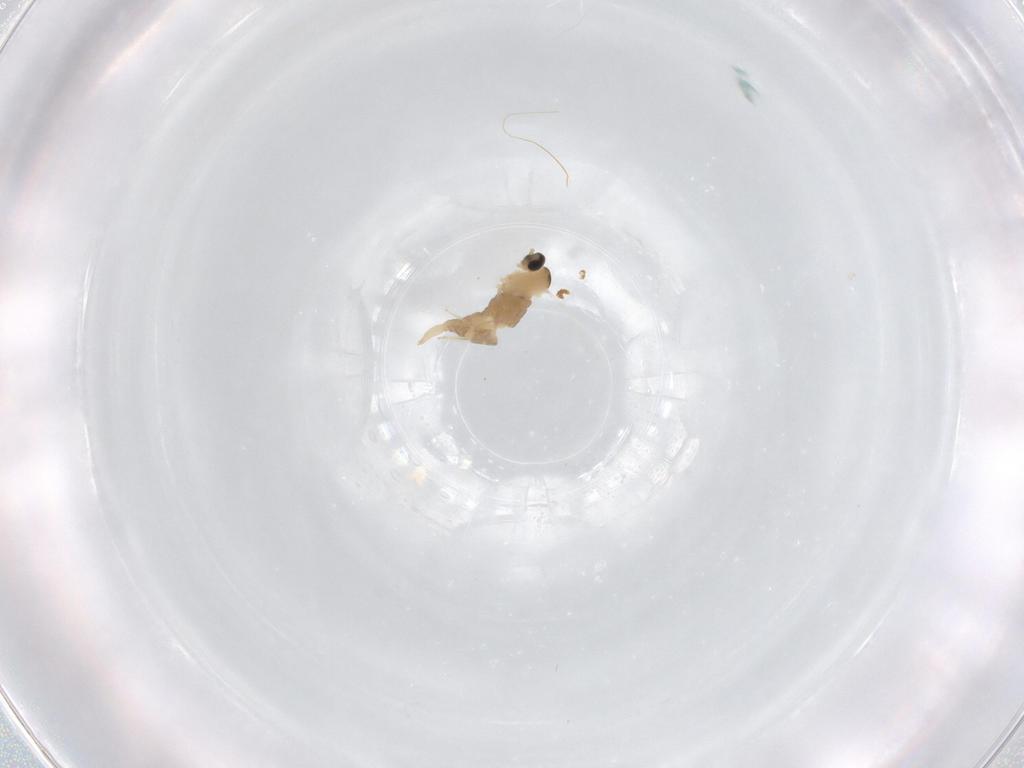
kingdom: Animalia
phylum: Arthropoda
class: Insecta
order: Diptera
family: Cecidomyiidae
